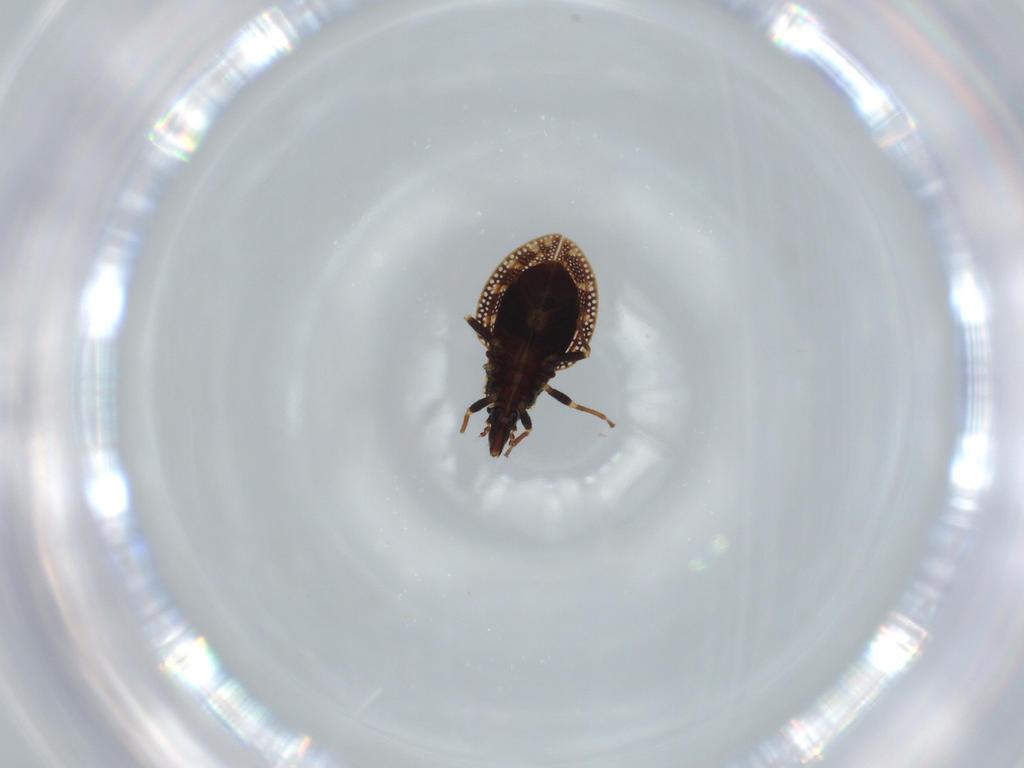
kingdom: Animalia
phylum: Arthropoda
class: Insecta
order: Hemiptera
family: Tingidae
